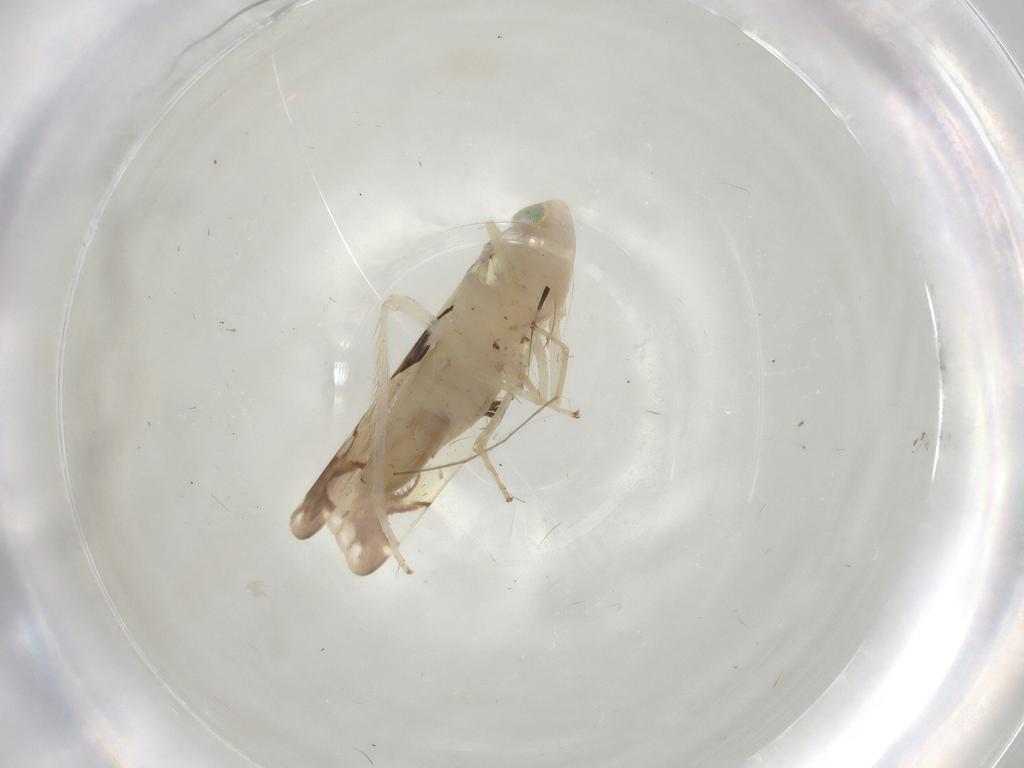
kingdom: Animalia
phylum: Arthropoda
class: Insecta
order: Hemiptera
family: Cicadellidae
